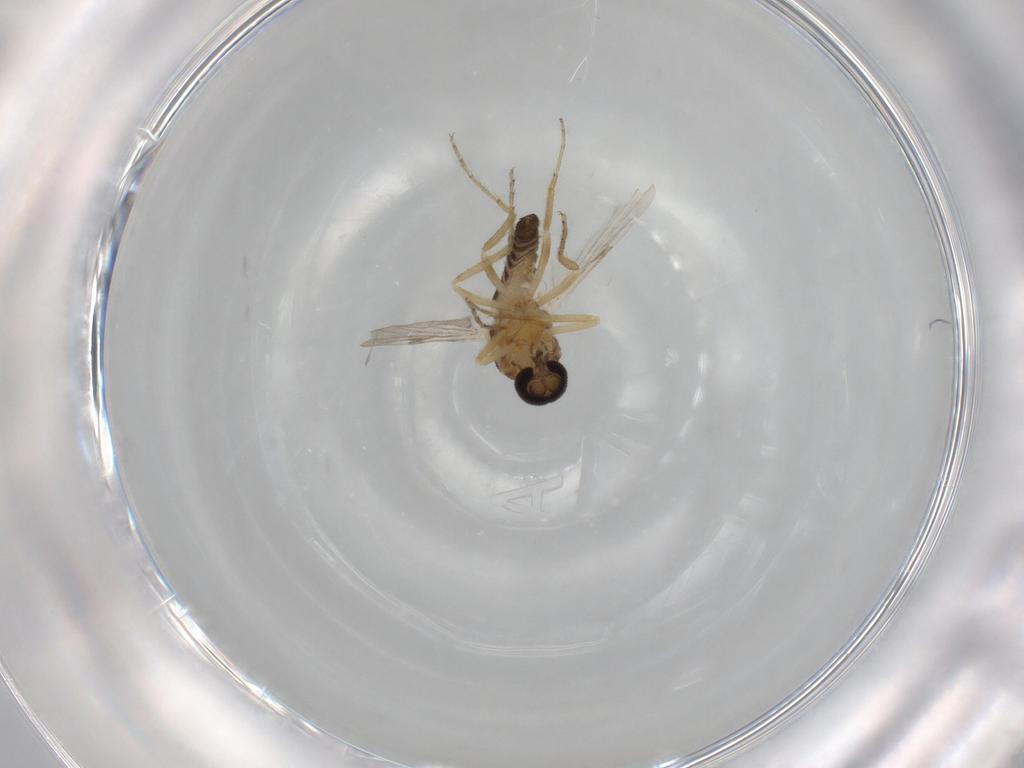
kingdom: Animalia
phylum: Arthropoda
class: Insecta
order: Diptera
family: Ceratopogonidae
